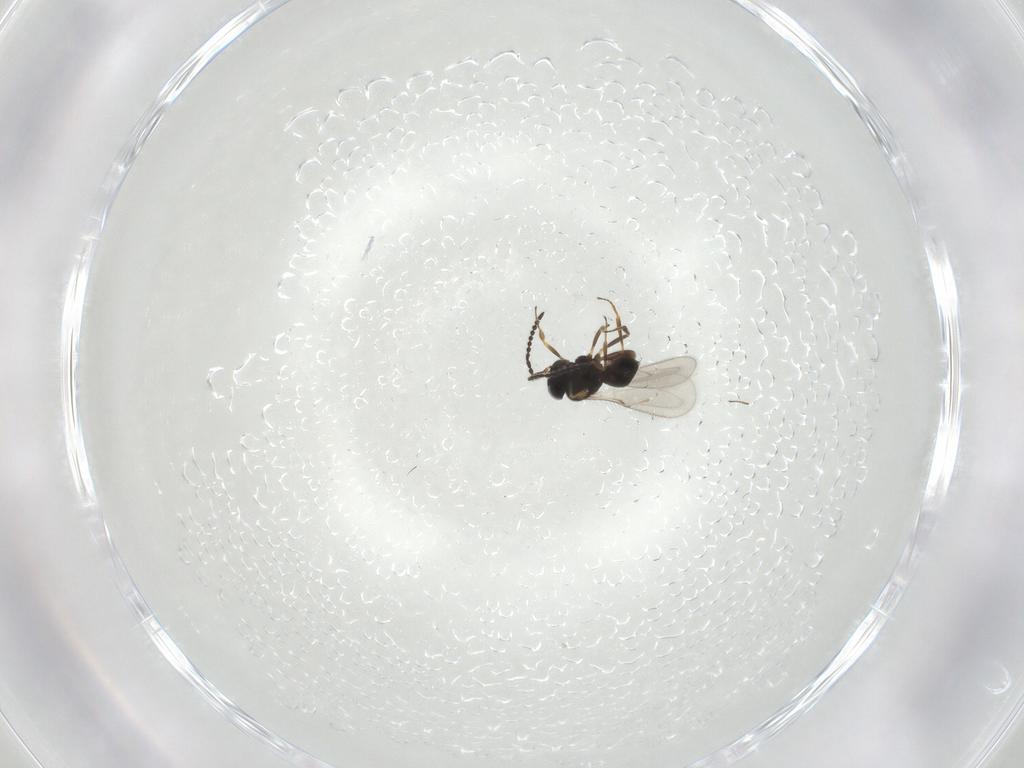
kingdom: Animalia
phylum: Arthropoda
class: Insecta
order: Hymenoptera
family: Scelionidae
